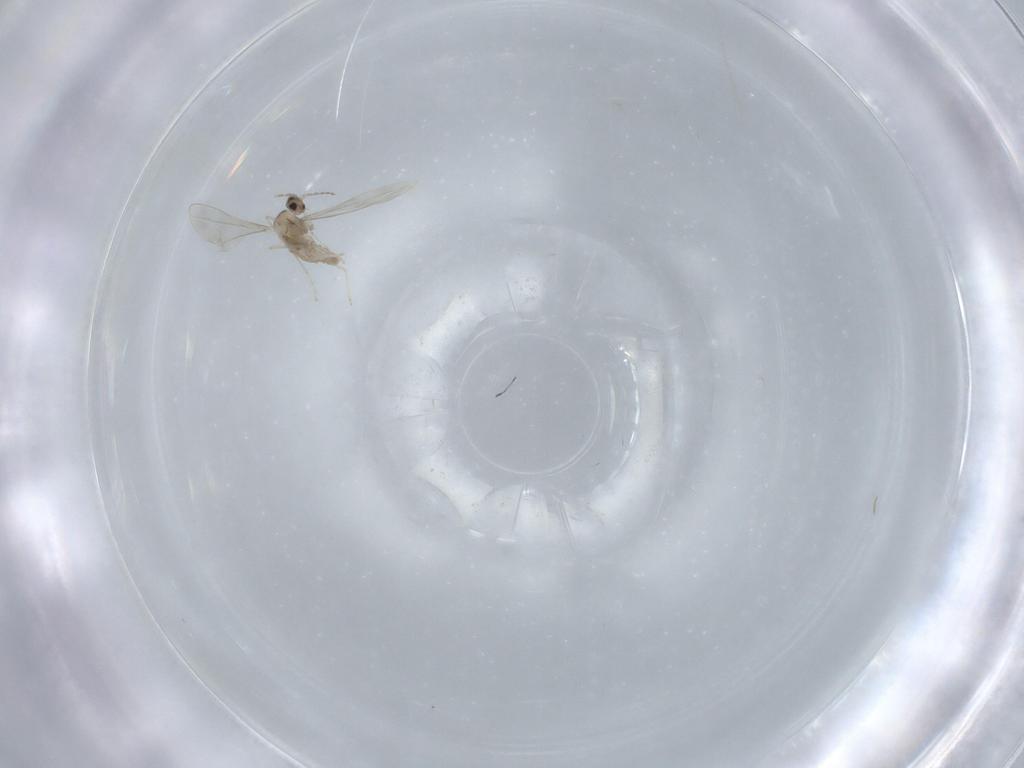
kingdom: Animalia
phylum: Arthropoda
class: Insecta
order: Diptera
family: Cecidomyiidae
